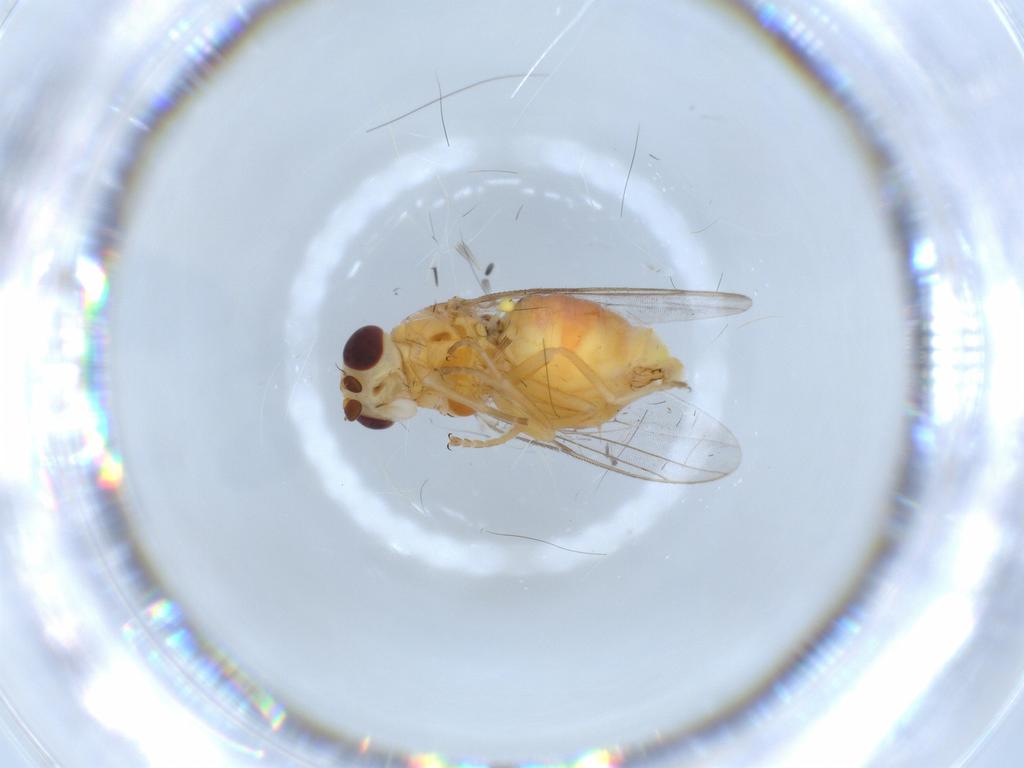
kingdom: Animalia
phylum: Arthropoda
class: Insecta
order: Diptera
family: Chloropidae
